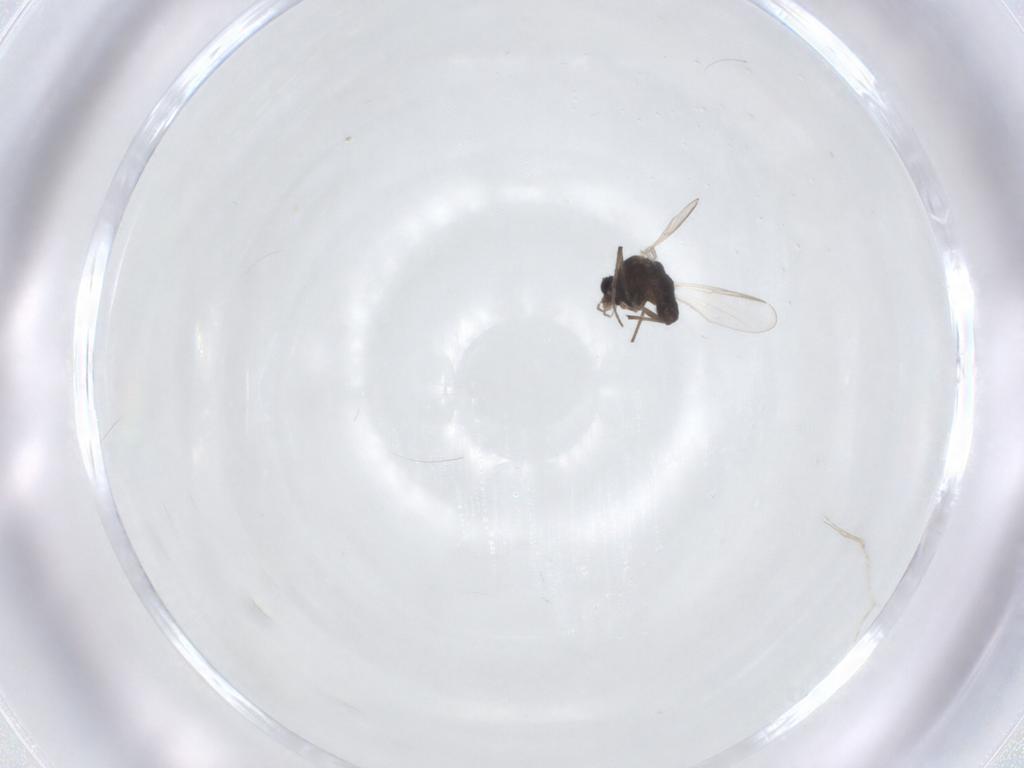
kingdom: Animalia
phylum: Arthropoda
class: Insecta
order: Diptera
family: Chironomidae
